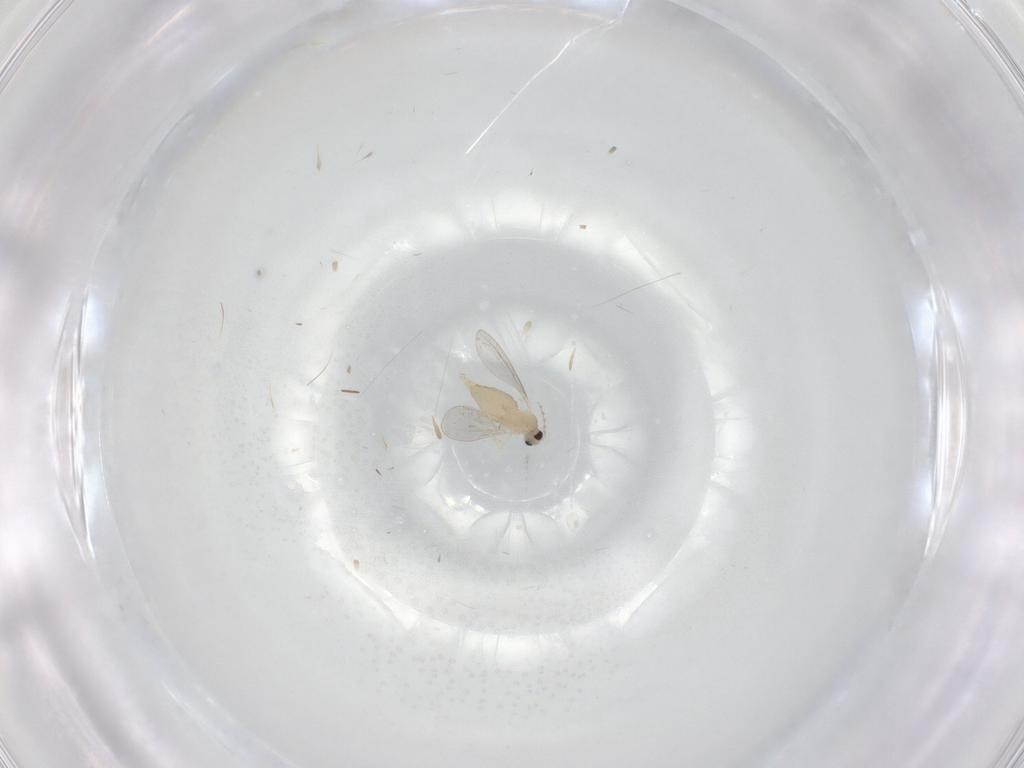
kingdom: Animalia
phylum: Arthropoda
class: Insecta
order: Diptera
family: Cecidomyiidae
